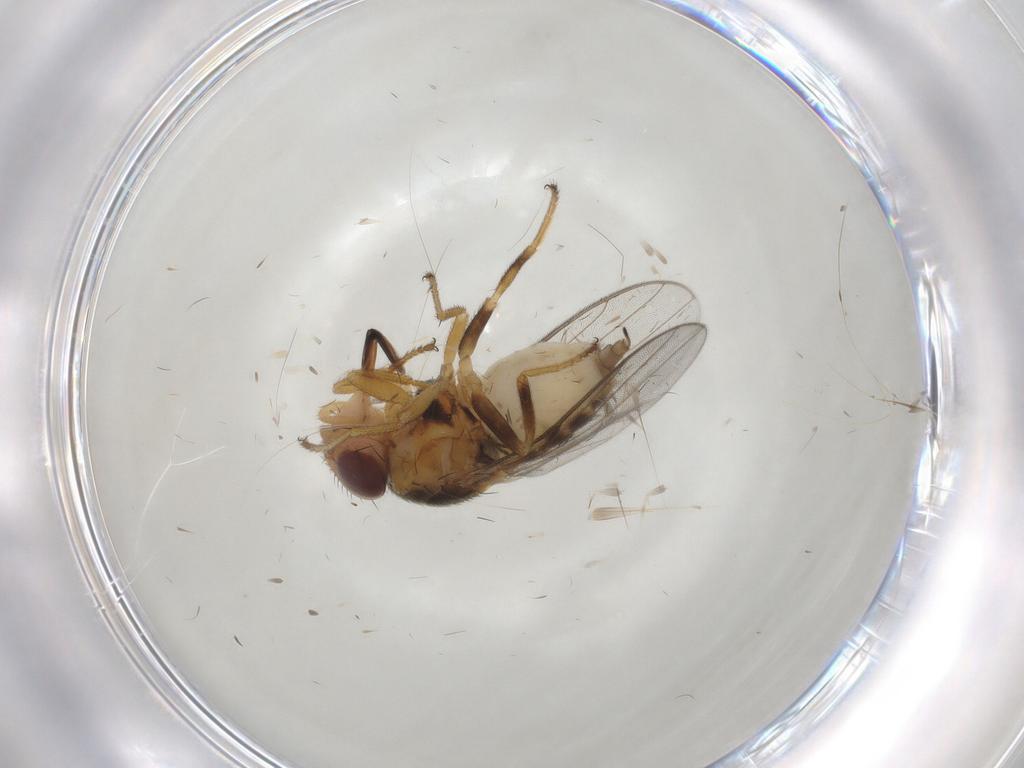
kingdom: Animalia
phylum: Arthropoda
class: Insecta
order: Diptera
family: Chloropidae
